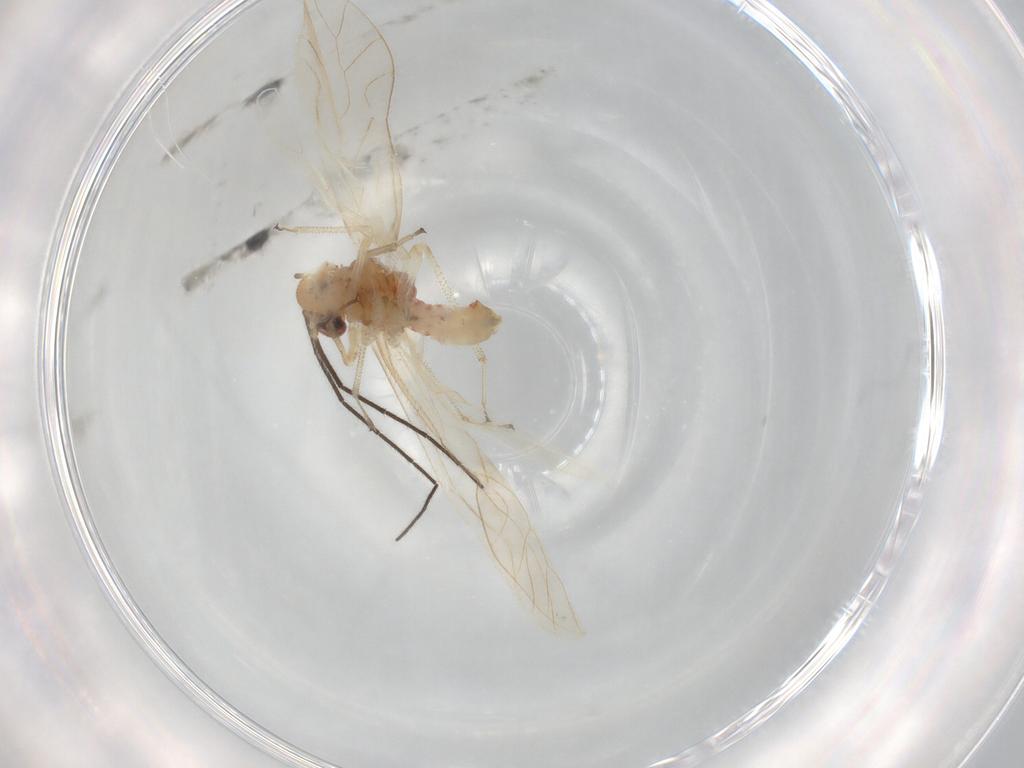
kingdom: Animalia
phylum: Arthropoda
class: Insecta
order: Psocodea
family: Caeciliusidae
